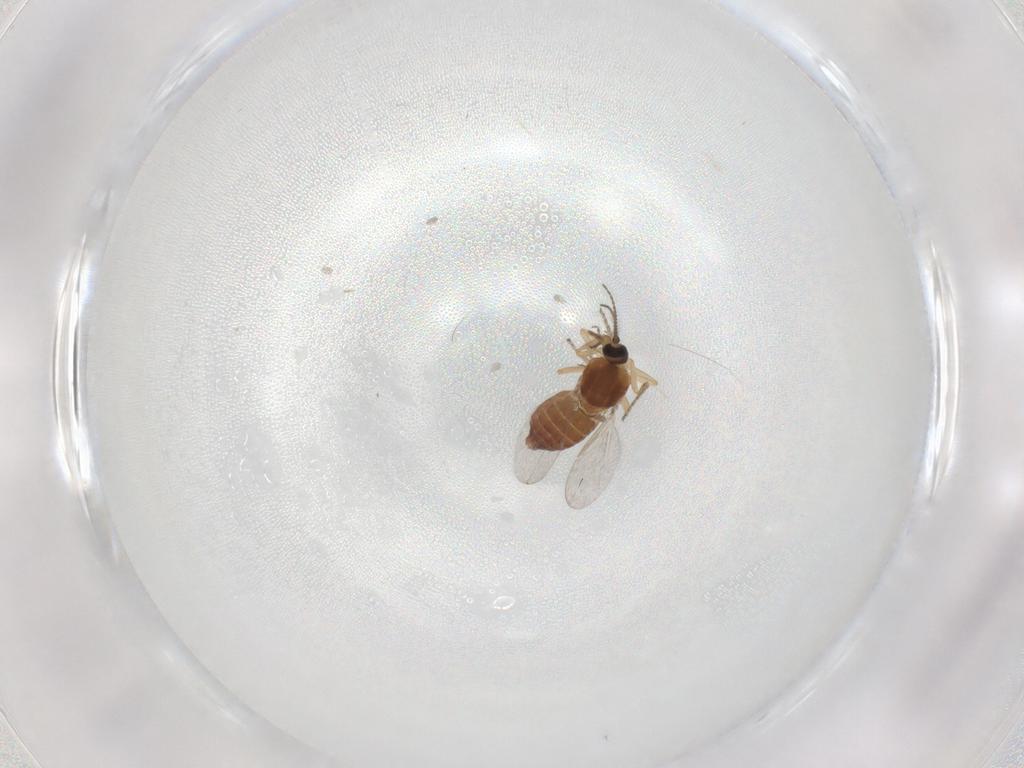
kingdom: Animalia
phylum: Arthropoda
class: Insecta
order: Diptera
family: Ceratopogonidae
